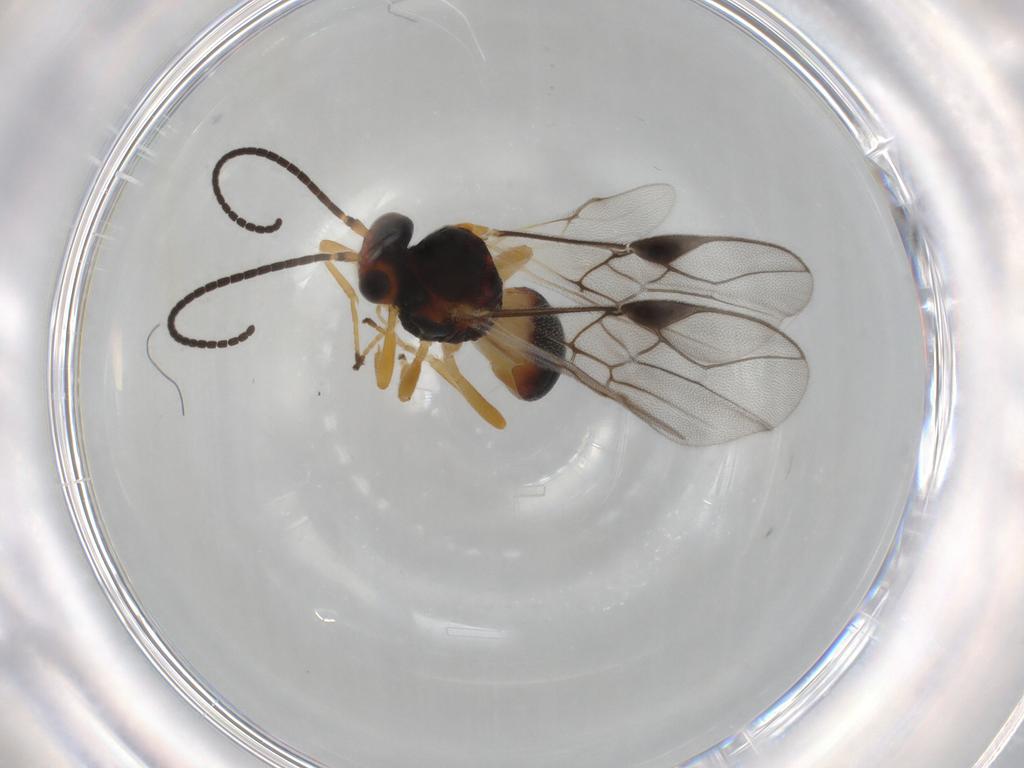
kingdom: Animalia
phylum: Arthropoda
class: Insecta
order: Hymenoptera
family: Braconidae
